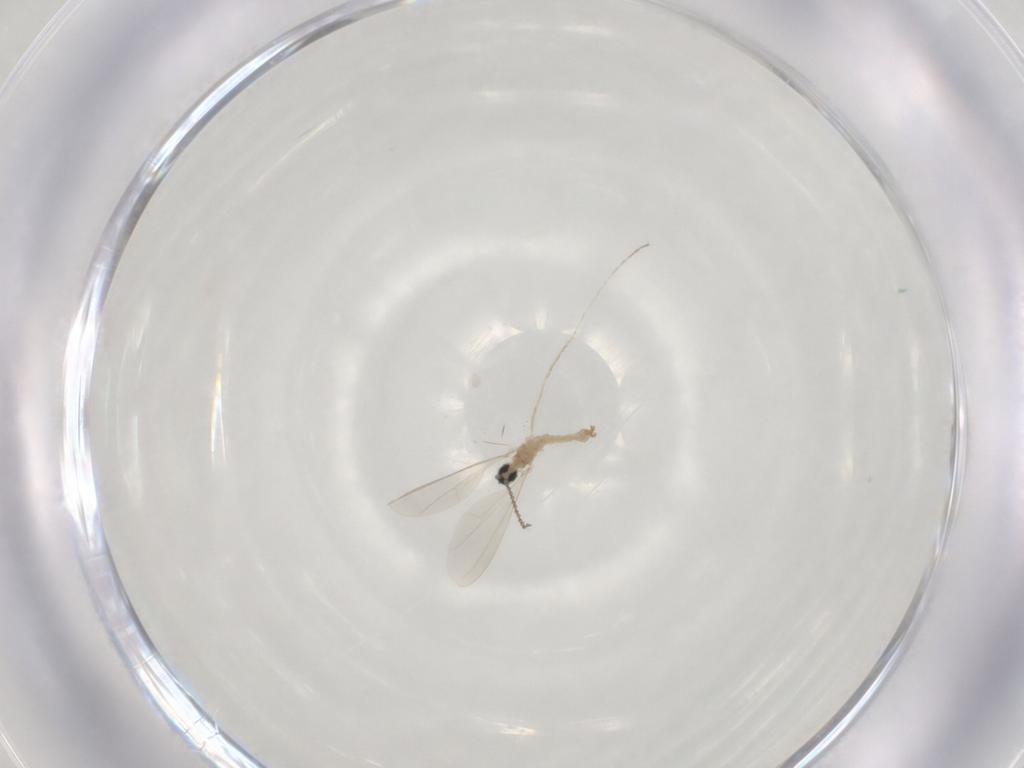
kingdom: Animalia
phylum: Arthropoda
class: Insecta
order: Diptera
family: Cecidomyiidae
